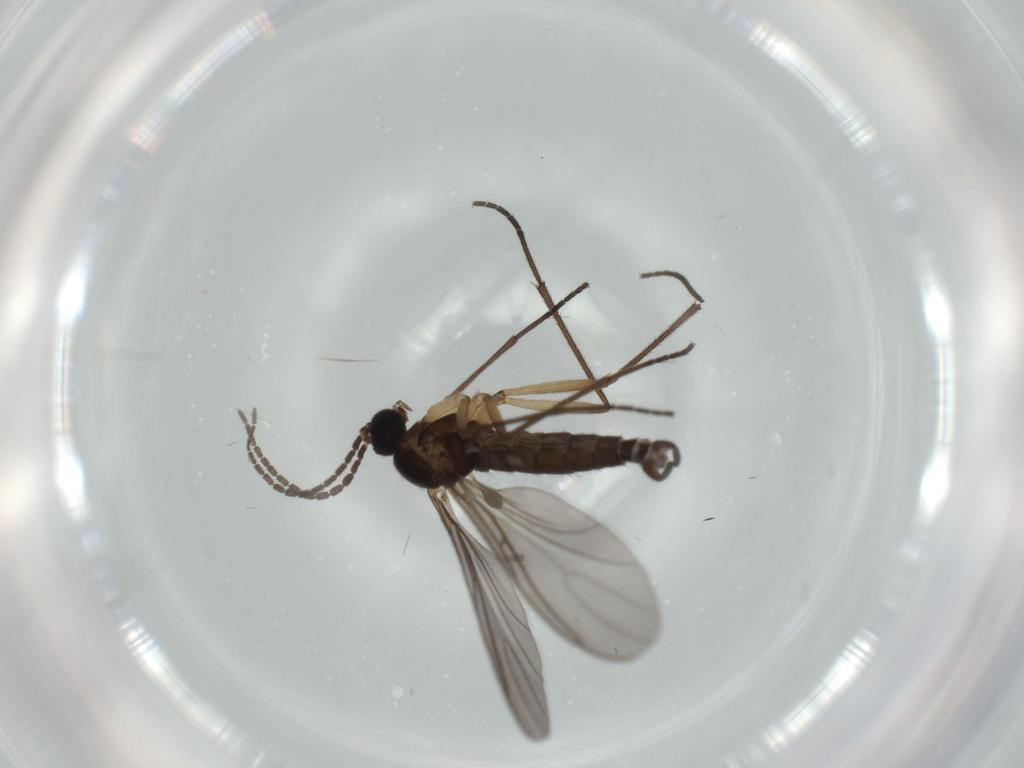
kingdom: Animalia
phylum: Arthropoda
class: Insecta
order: Diptera
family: Sciaridae
